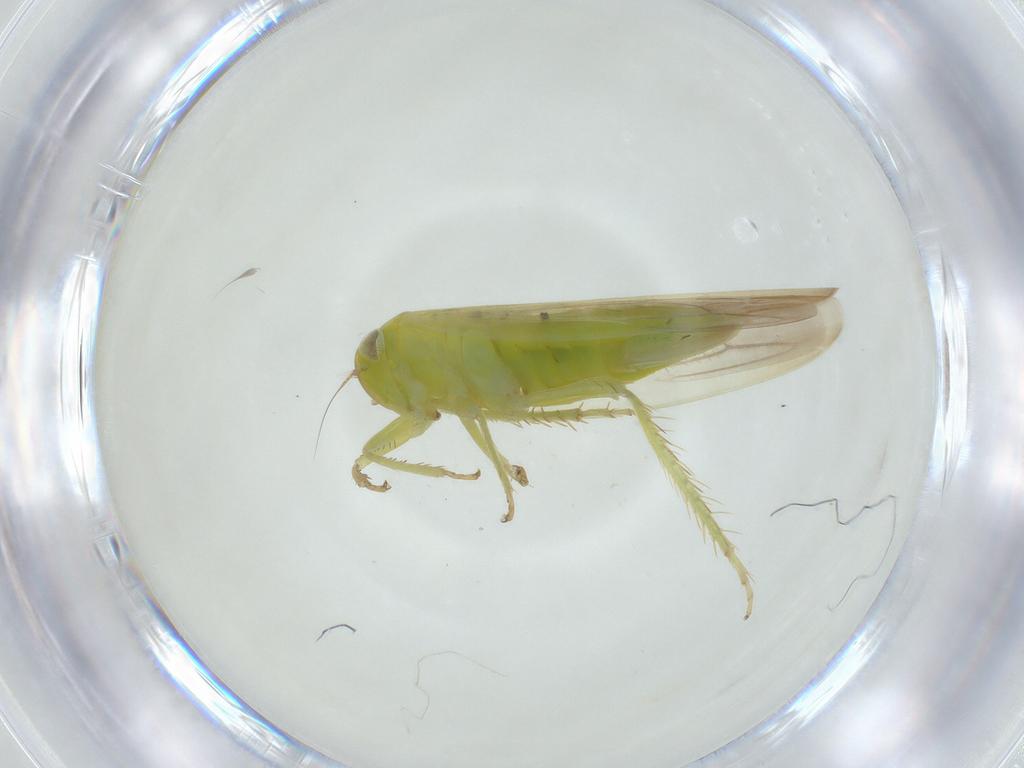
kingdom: Animalia
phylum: Arthropoda
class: Insecta
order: Hemiptera
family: Cicadellidae
